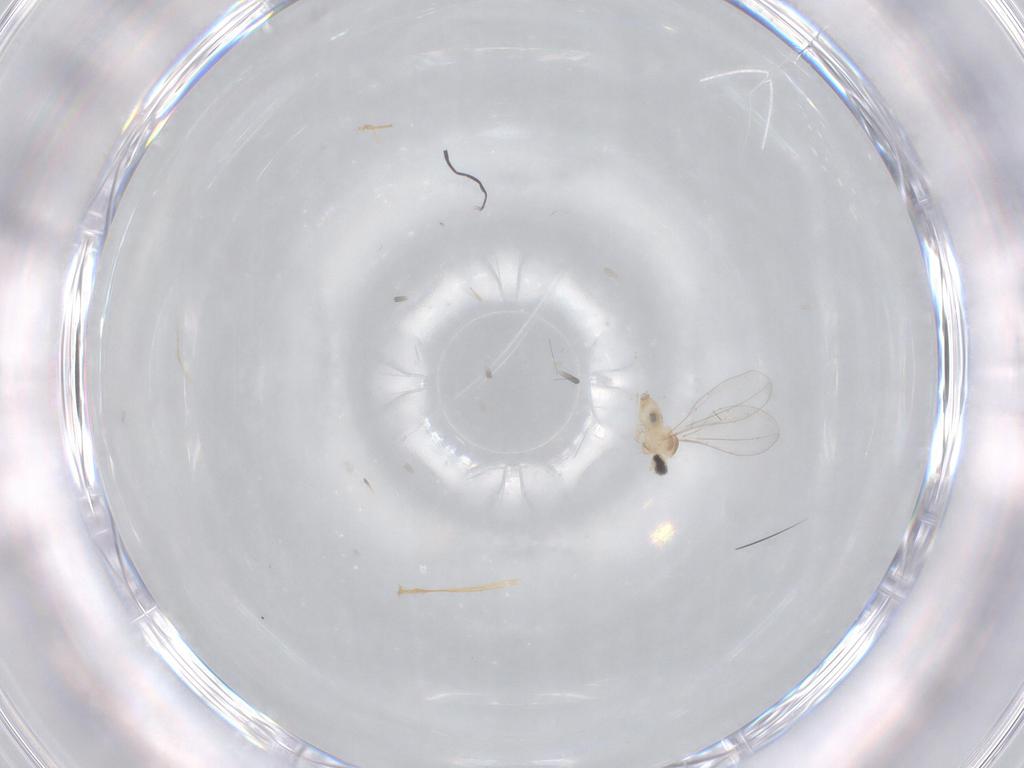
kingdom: Animalia
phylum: Arthropoda
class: Insecta
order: Diptera
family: Cecidomyiidae
